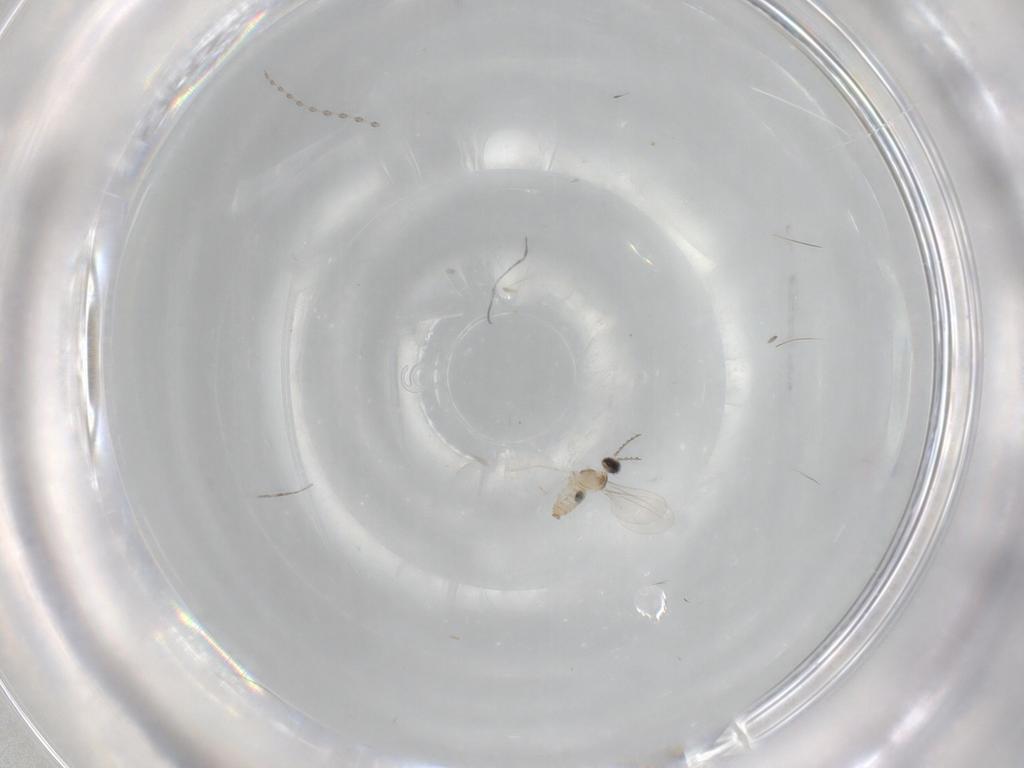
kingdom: Animalia
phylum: Arthropoda
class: Insecta
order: Diptera
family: Cecidomyiidae
